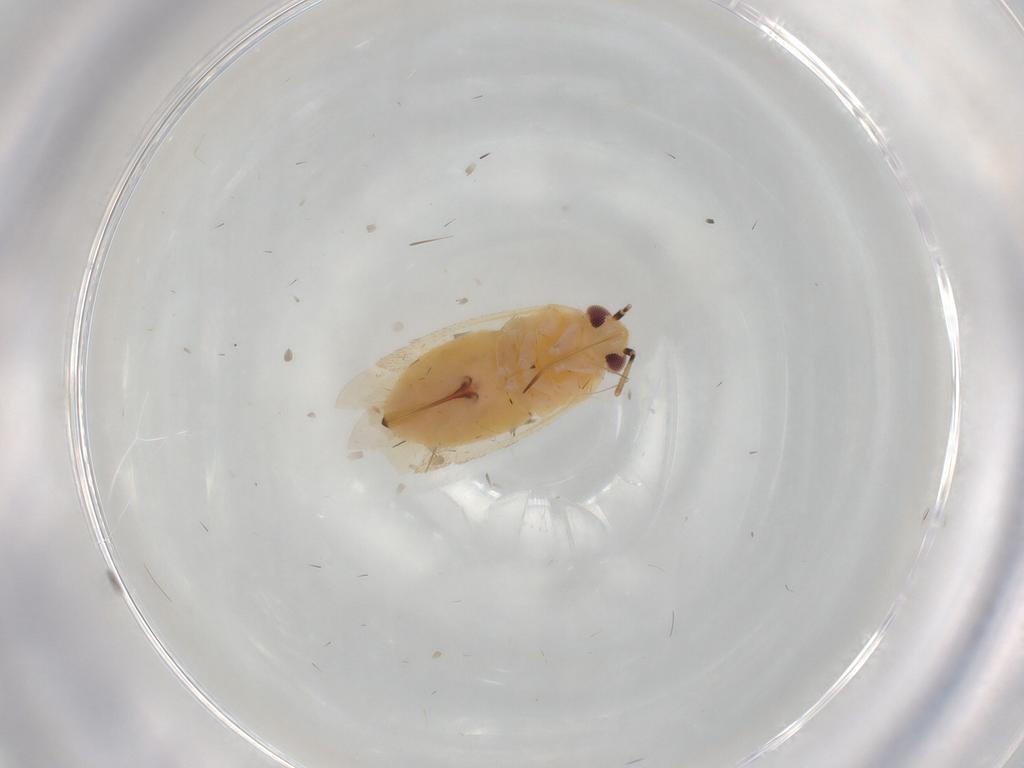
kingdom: Animalia
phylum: Arthropoda
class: Insecta
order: Hemiptera
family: Miridae
